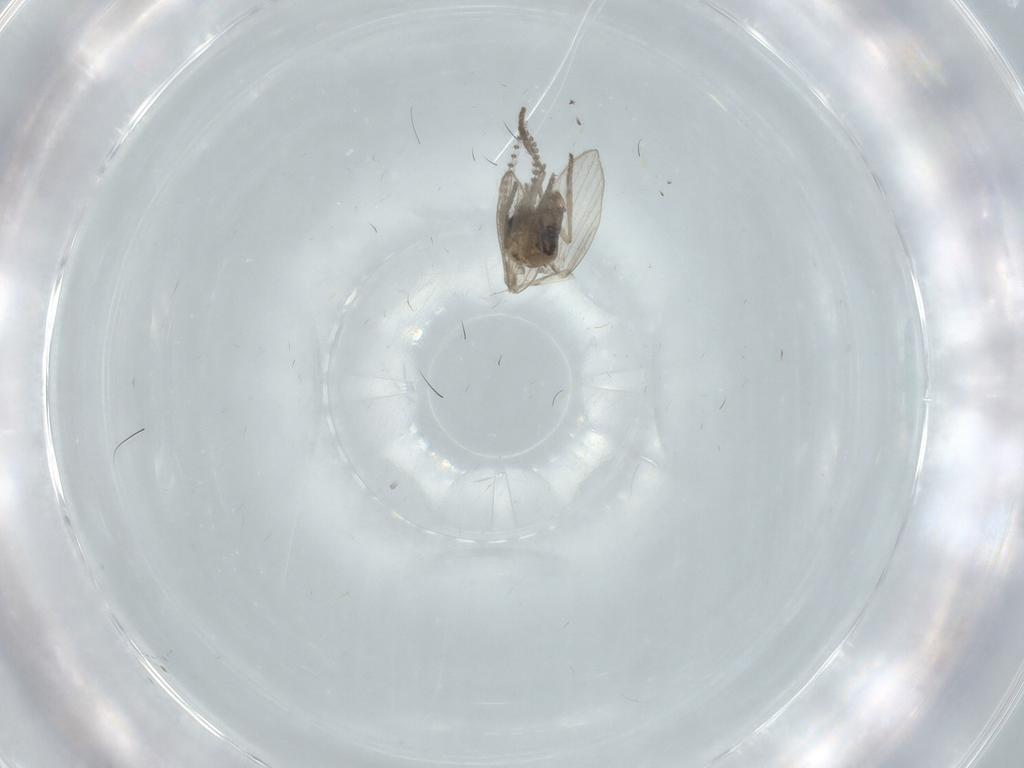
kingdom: Animalia
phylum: Arthropoda
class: Insecta
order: Diptera
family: Psychodidae
